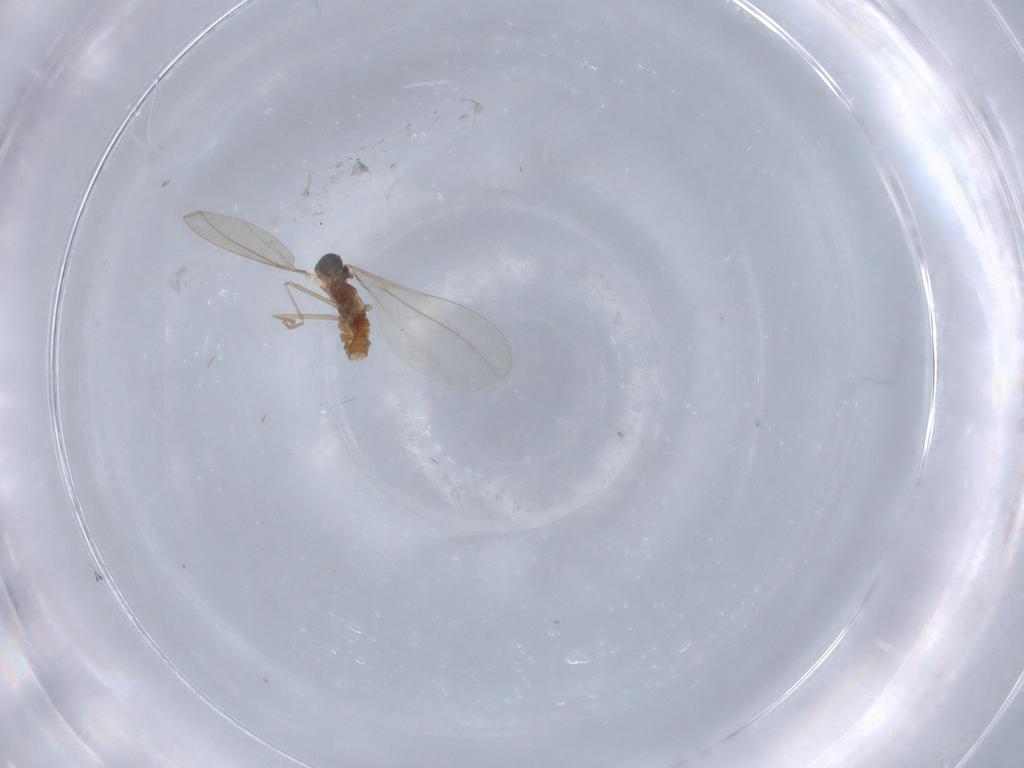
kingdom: Animalia
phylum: Arthropoda
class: Insecta
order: Diptera
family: Cecidomyiidae
